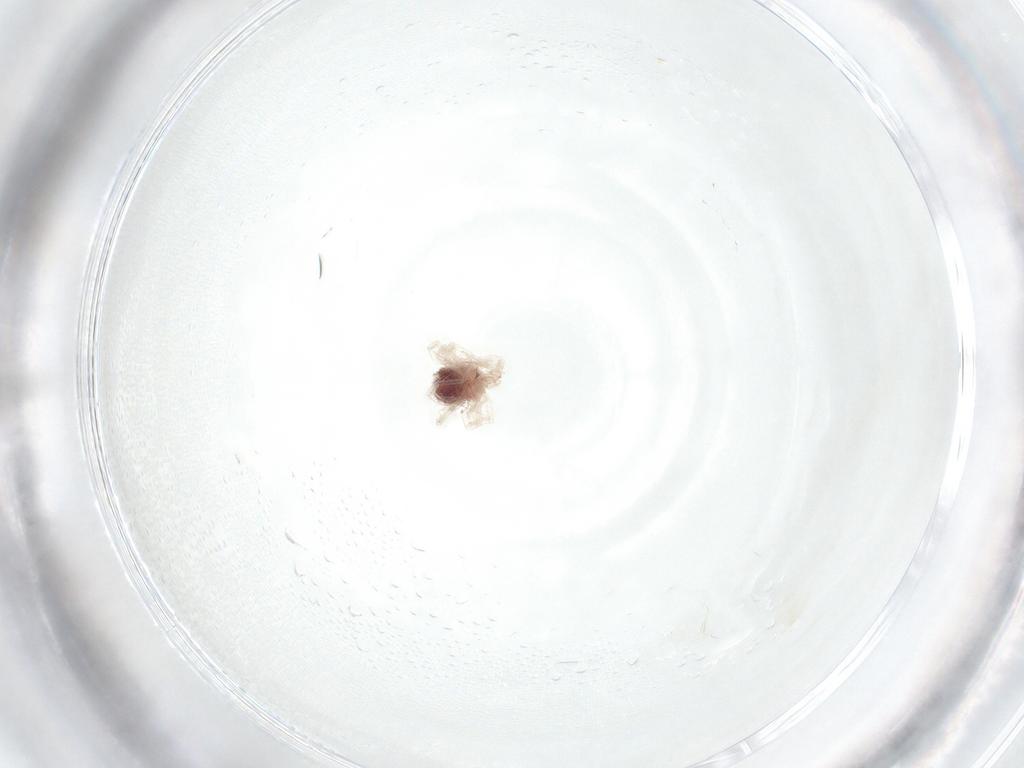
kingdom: Animalia
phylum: Arthropoda
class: Arachnida
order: Trombidiformes
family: Anystidae
